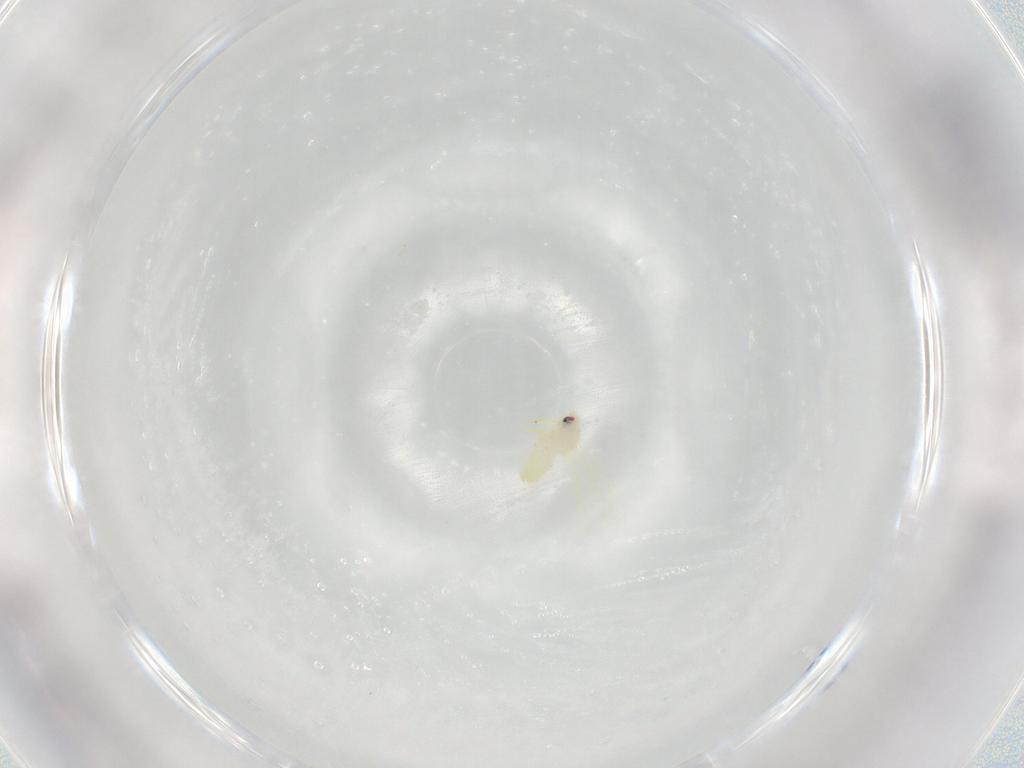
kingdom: Animalia
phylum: Arthropoda
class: Insecta
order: Hemiptera
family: Aleyrodidae
